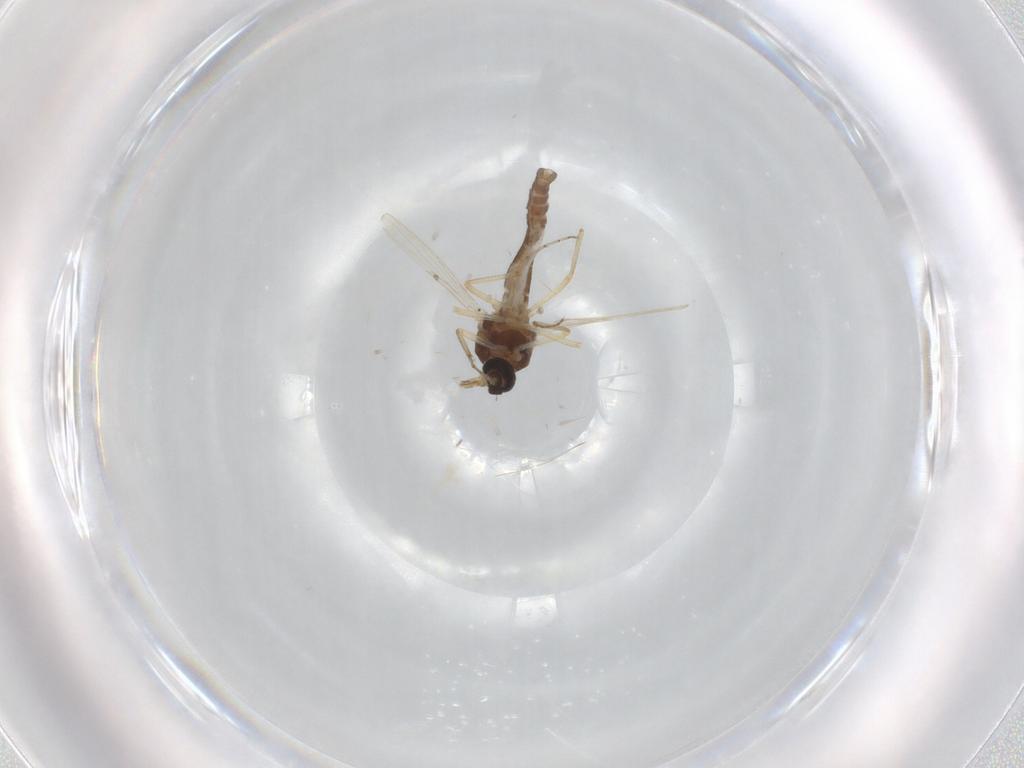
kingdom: Animalia
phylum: Arthropoda
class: Insecta
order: Diptera
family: Ceratopogonidae
